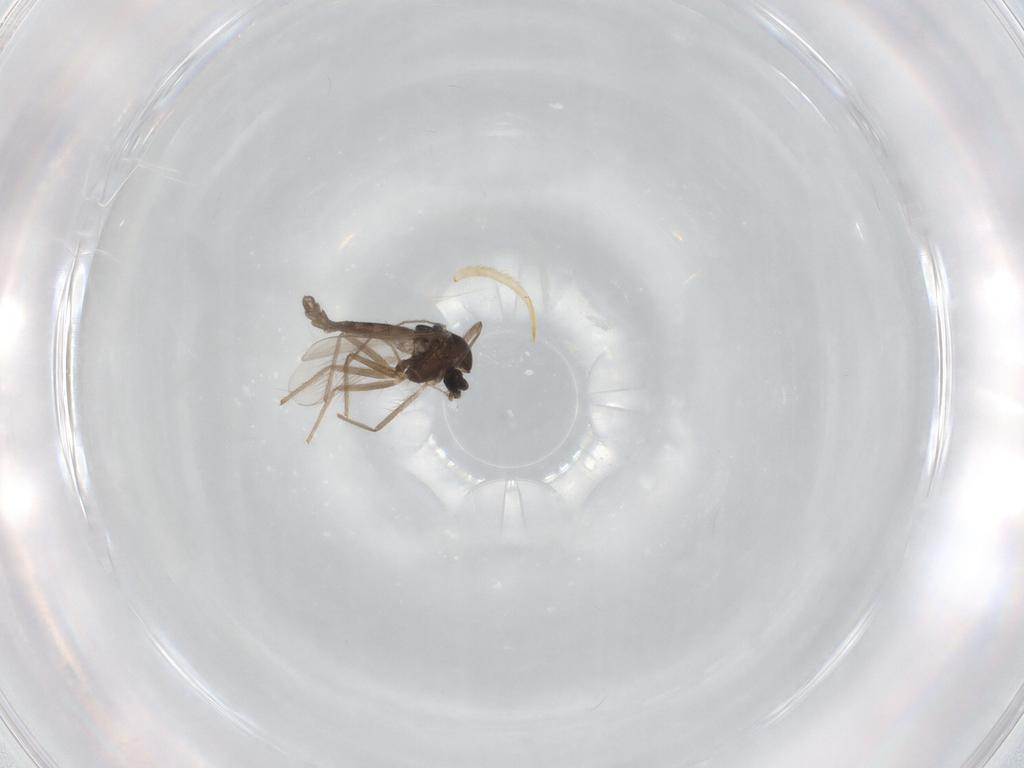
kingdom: Animalia
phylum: Arthropoda
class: Insecta
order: Diptera
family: Chironomidae
